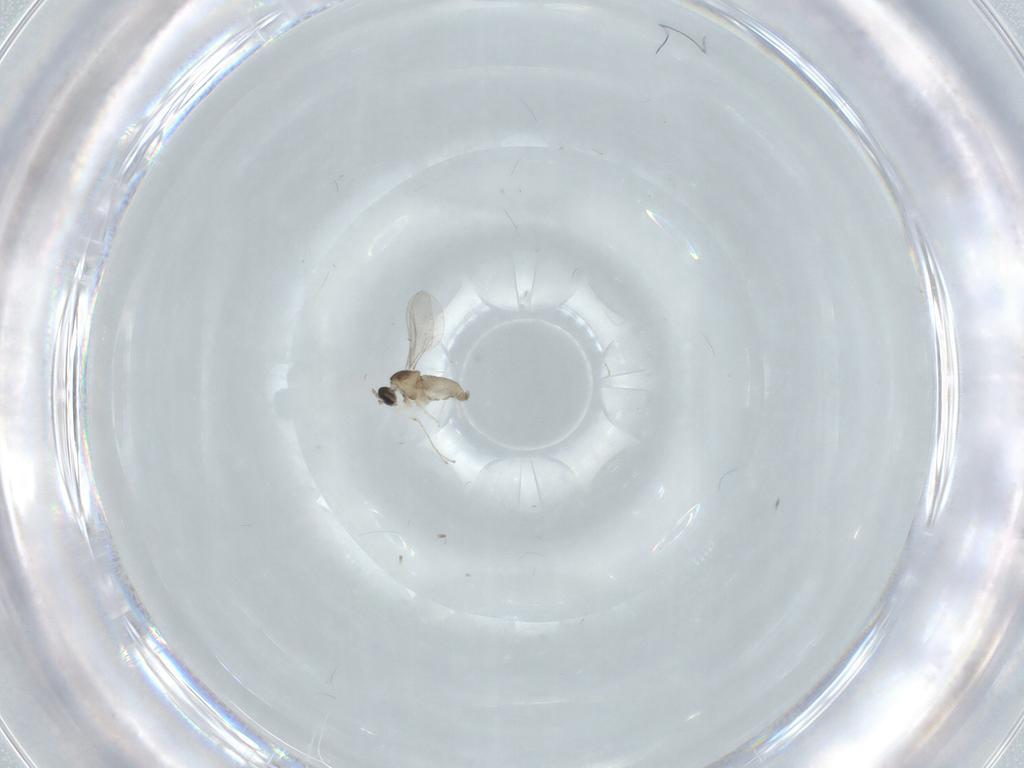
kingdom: Animalia
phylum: Arthropoda
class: Insecta
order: Diptera
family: Cecidomyiidae
